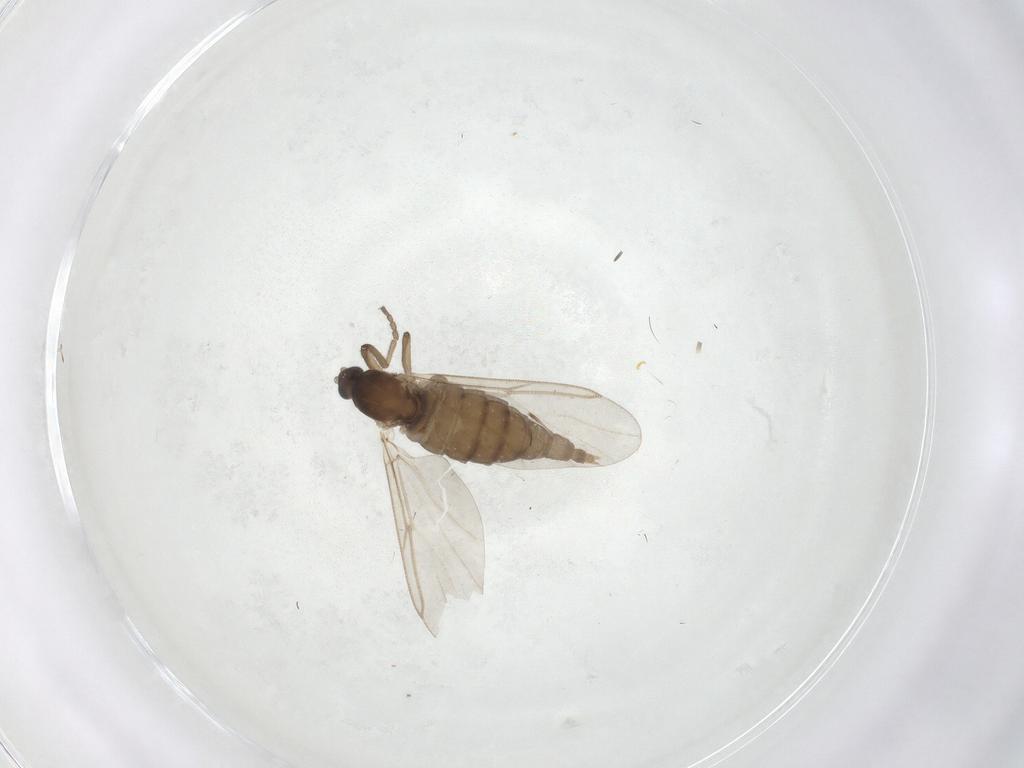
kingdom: Animalia
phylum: Arthropoda
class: Insecta
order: Diptera
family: Cecidomyiidae
